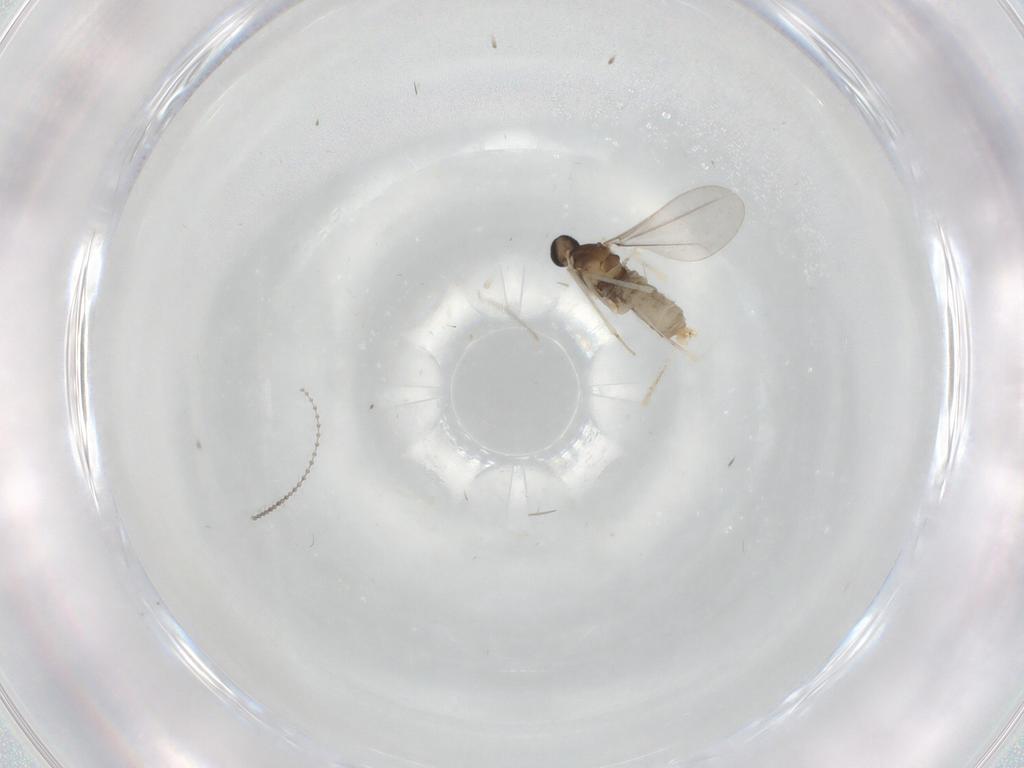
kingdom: Animalia
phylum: Arthropoda
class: Insecta
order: Diptera
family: Cecidomyiidae
